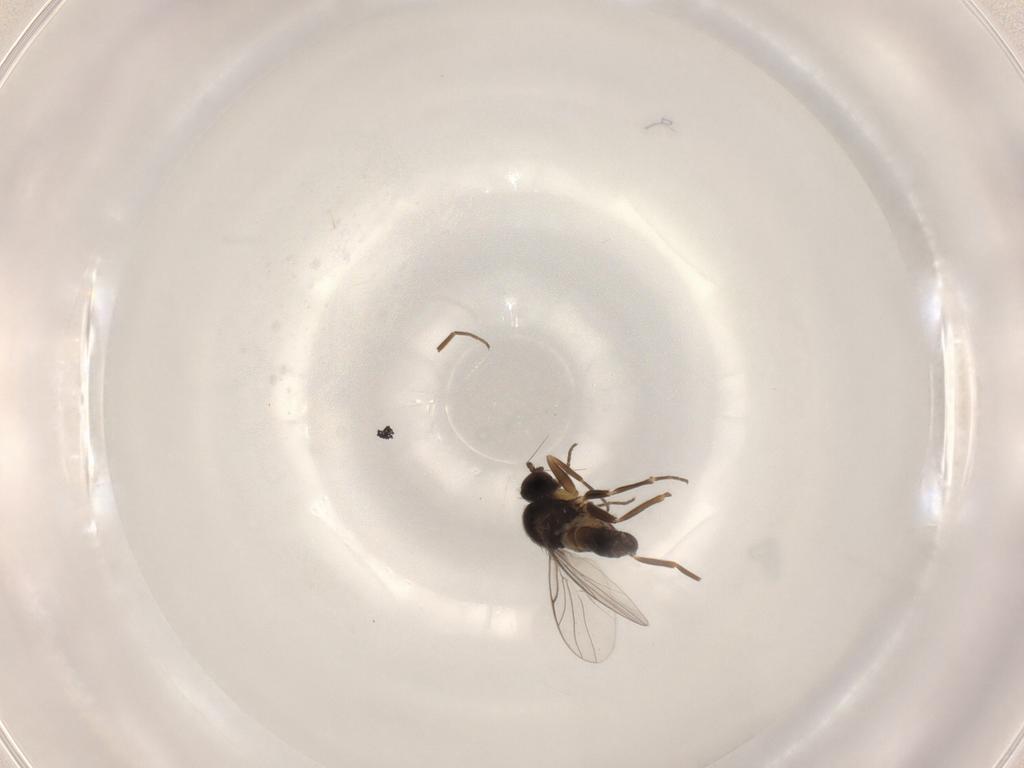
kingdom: Animalia
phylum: Arthropoda
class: Insecta
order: Diptera
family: Hybotidae
